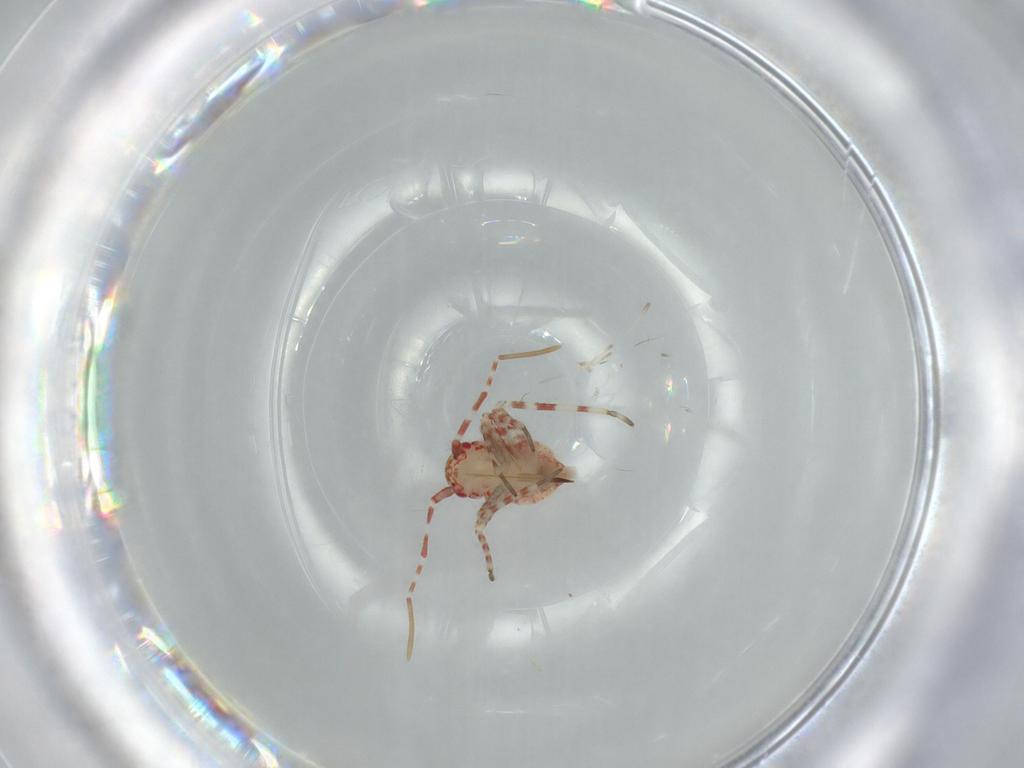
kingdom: Animalia
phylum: Arthropoda
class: Insecta
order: Hemiptera
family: Miridae
